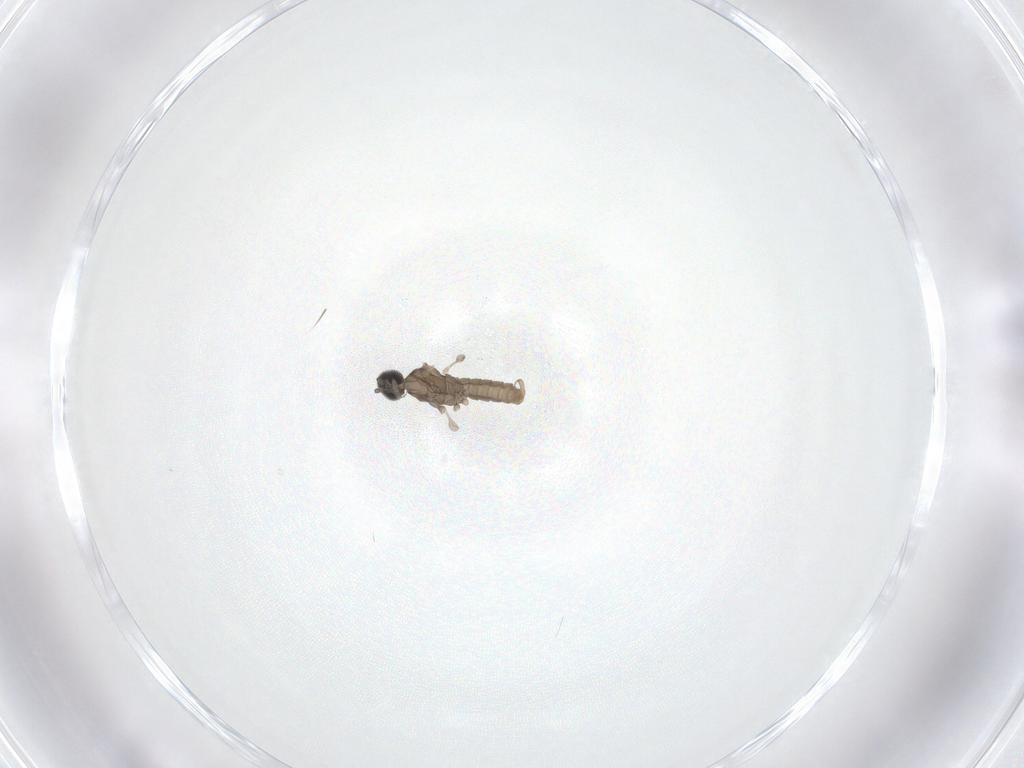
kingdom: Animalia
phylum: Arthropoda
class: Insecta
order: Diptera
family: Cecidomyiidae
